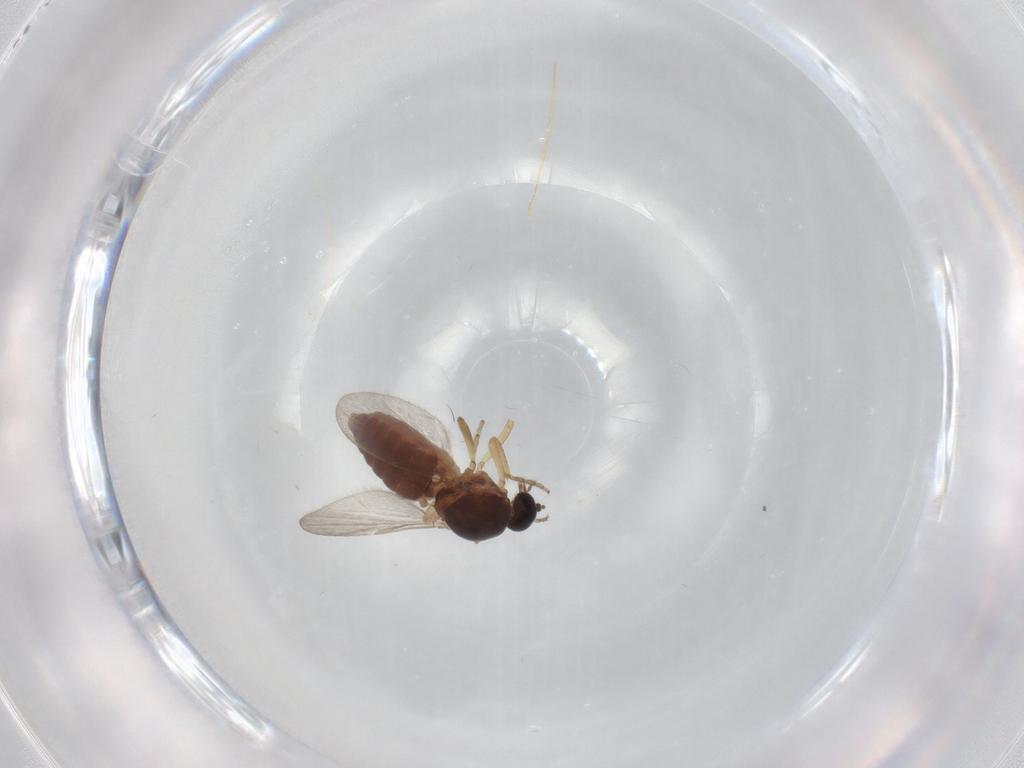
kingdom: Animalia
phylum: Arthropoda
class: Insecta
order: Diptera
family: Ceratopogonidae
